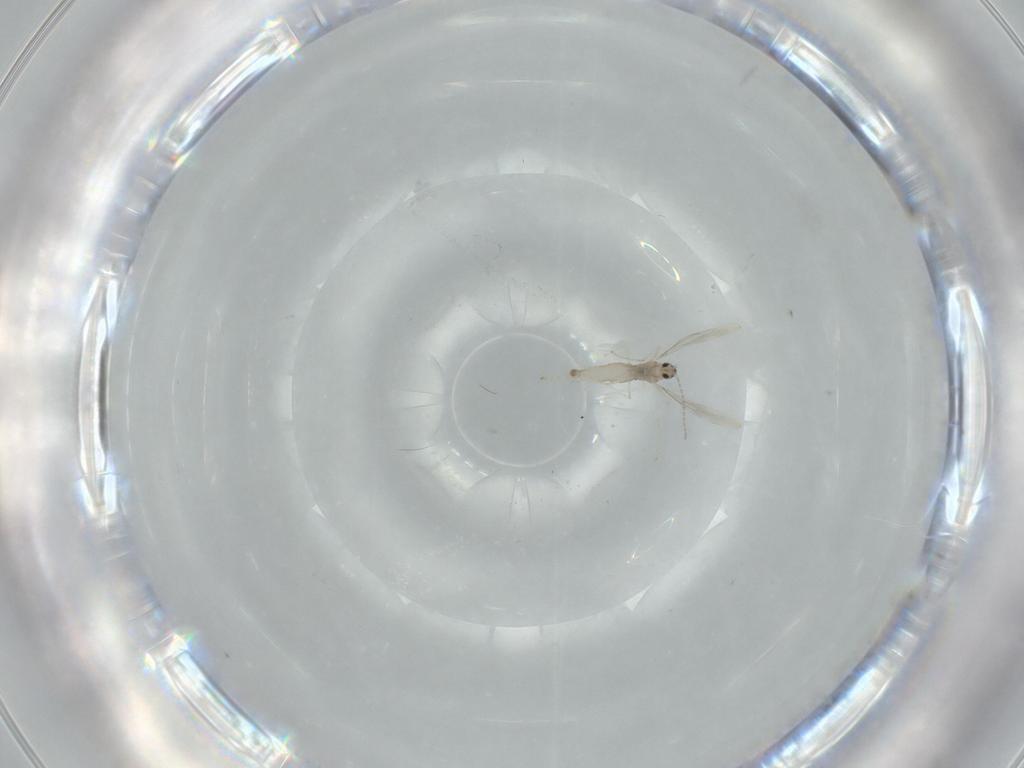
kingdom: Animalia
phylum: Arthropoda
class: Insecta
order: Diptera
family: Cecidomyiidae
